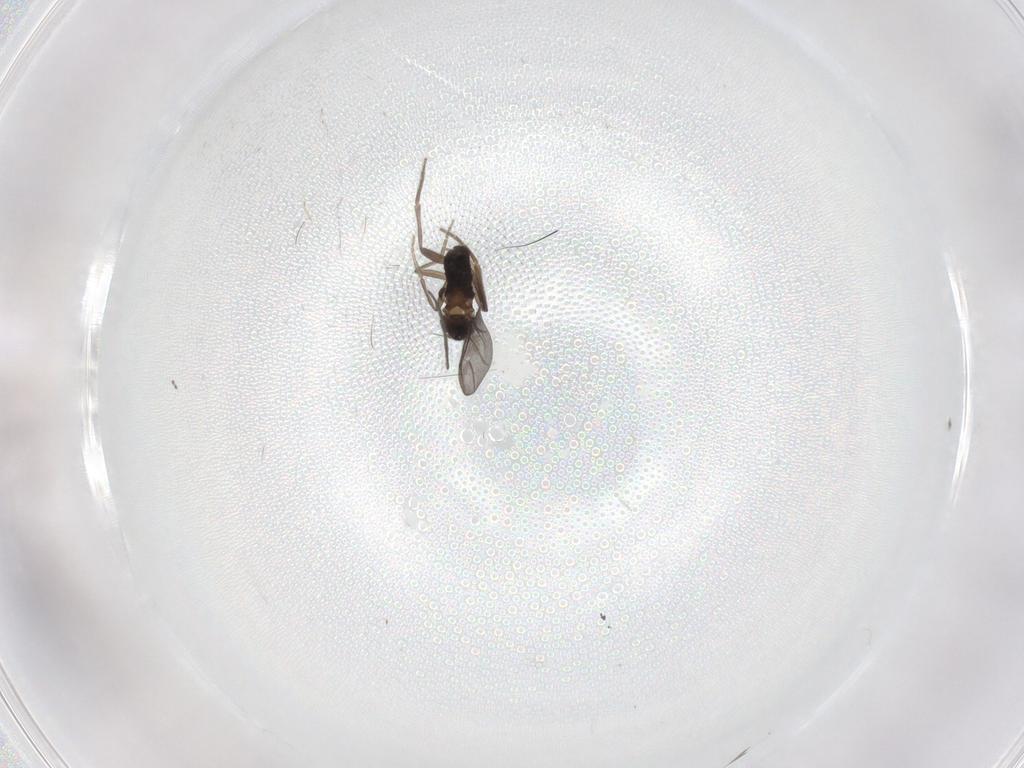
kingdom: Animalia
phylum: Arthropoda
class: Insecta
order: Diptera
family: Cecidomyiidae
